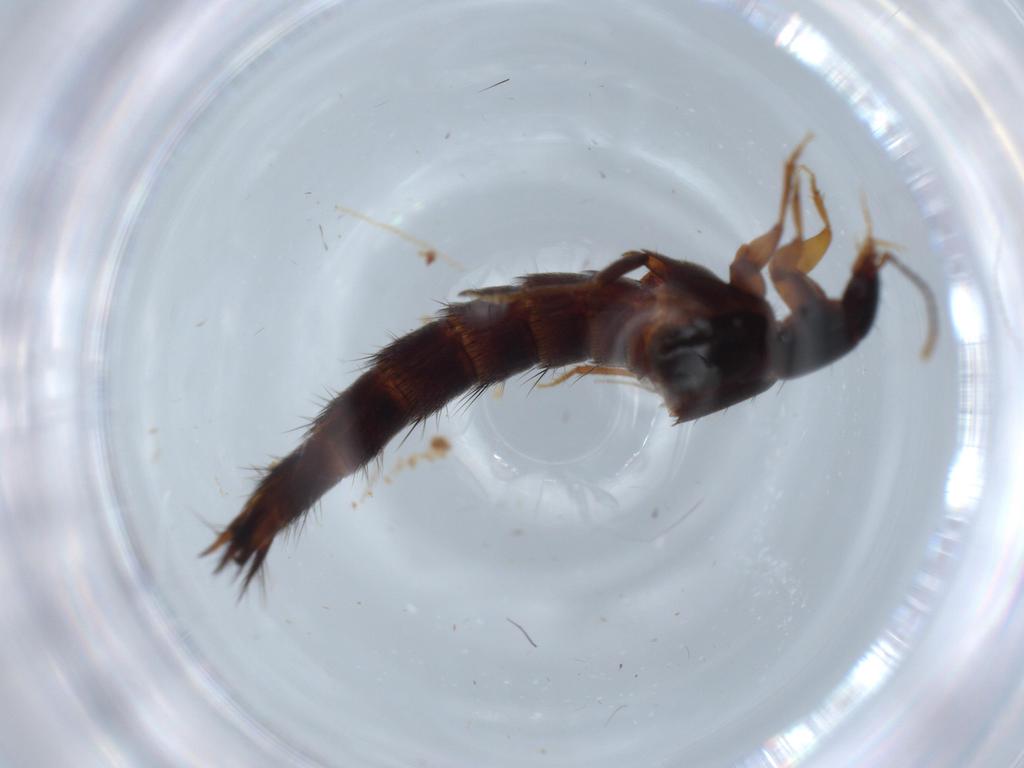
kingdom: Animalia
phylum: Arthropoda
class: Insecta
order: Coleoptera
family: Staphylinidae
